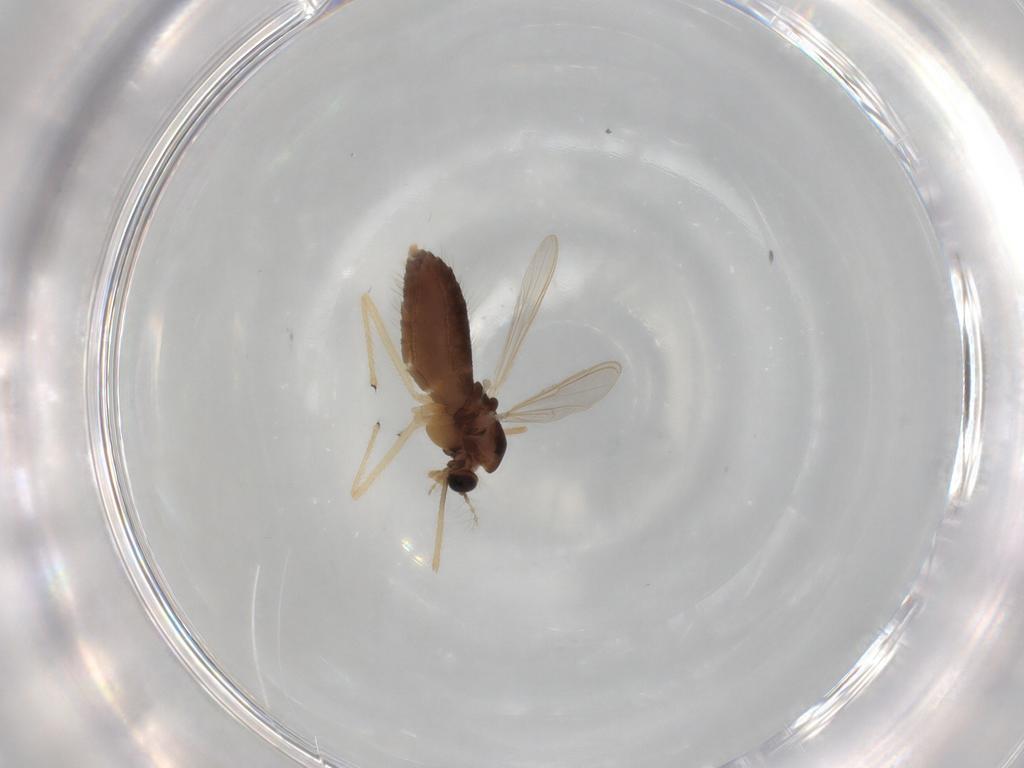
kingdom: Animalia
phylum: Arthropoda
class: Insecta
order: Diptera
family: Chironomidae
